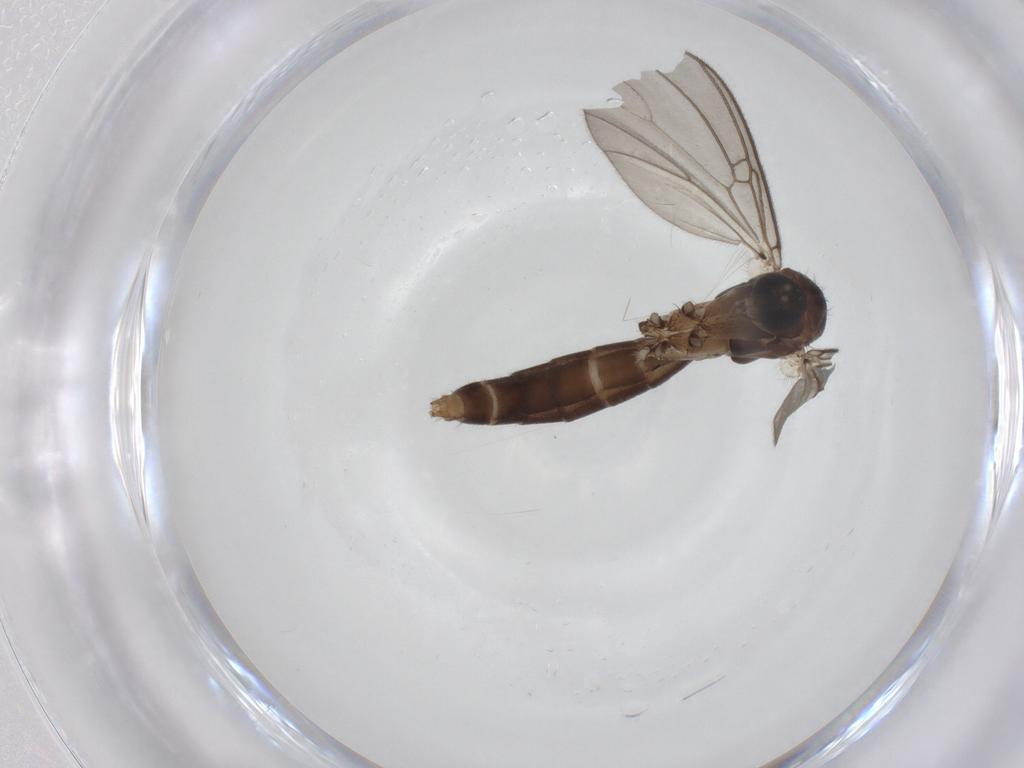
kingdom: Animalia
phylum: Arthropoda
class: Insecta
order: Diptera
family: Mycetophilidae
